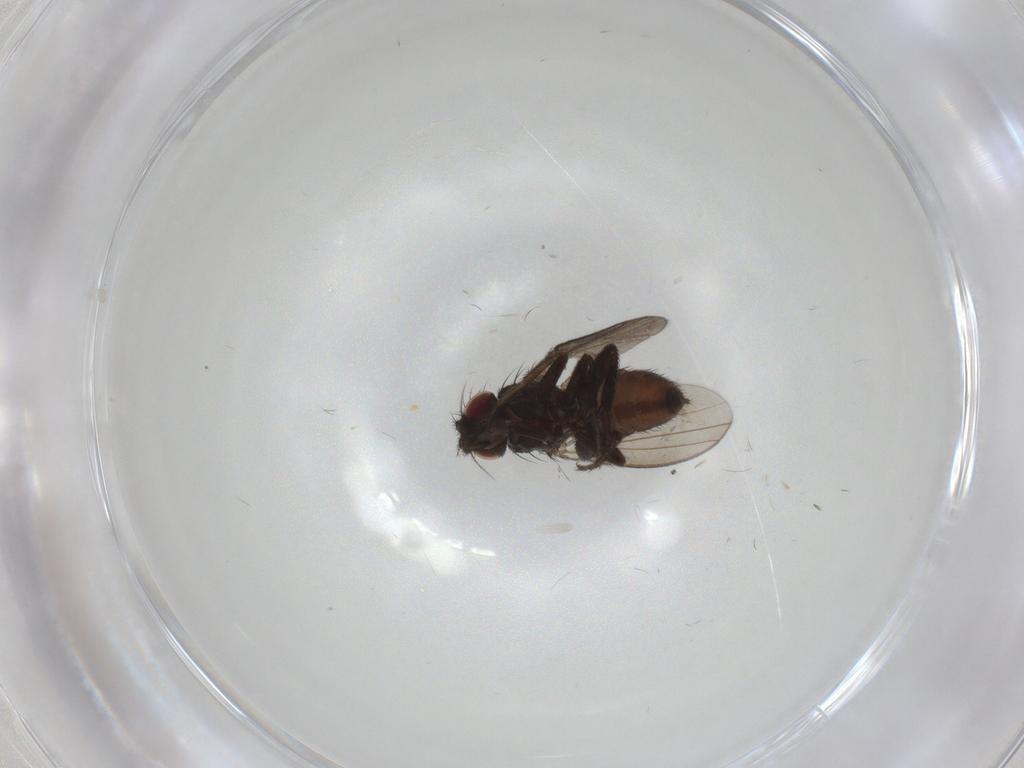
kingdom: Animalia
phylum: Arthropoda
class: Insecta
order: Diptera
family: Milichiidae
